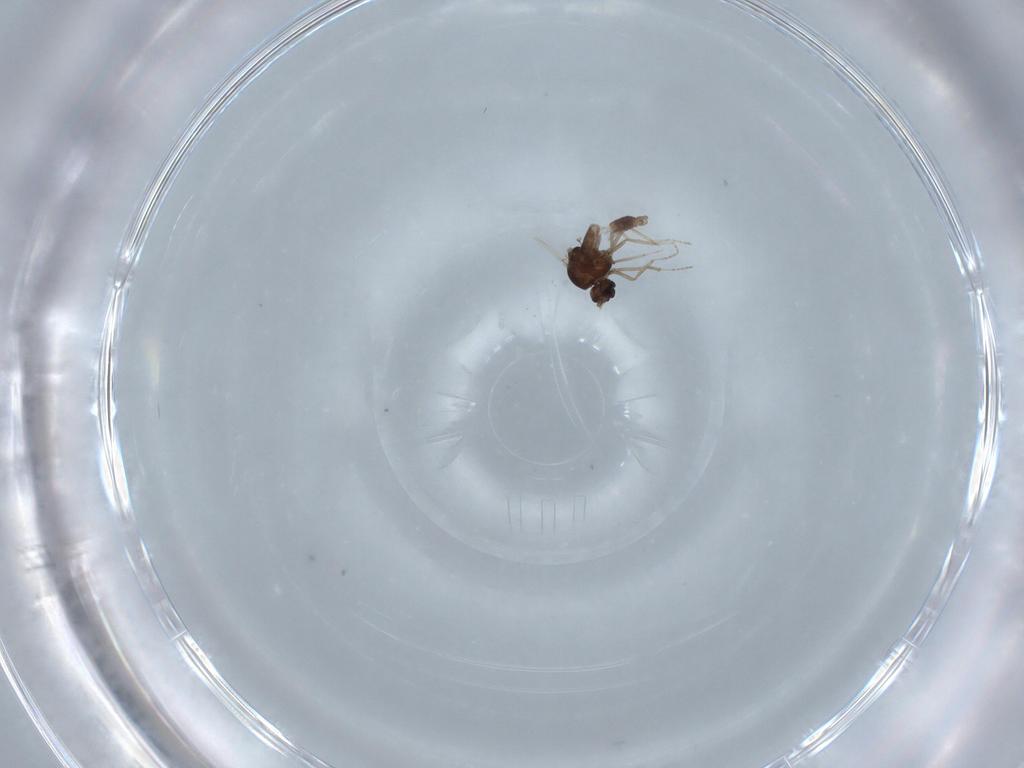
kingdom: Animalia
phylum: Arthropoda
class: Insecta
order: Diptera
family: Ceratopogonidae
